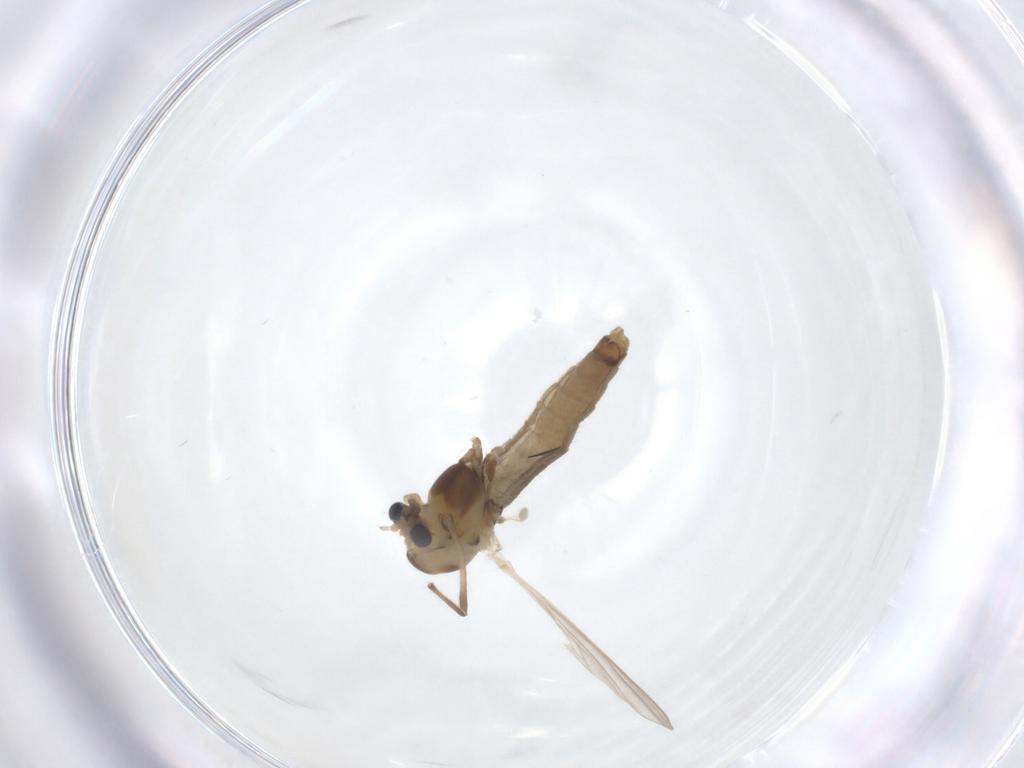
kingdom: Animalia
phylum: Arthropoda
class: Insecta
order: Diptera
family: Chironomidae
